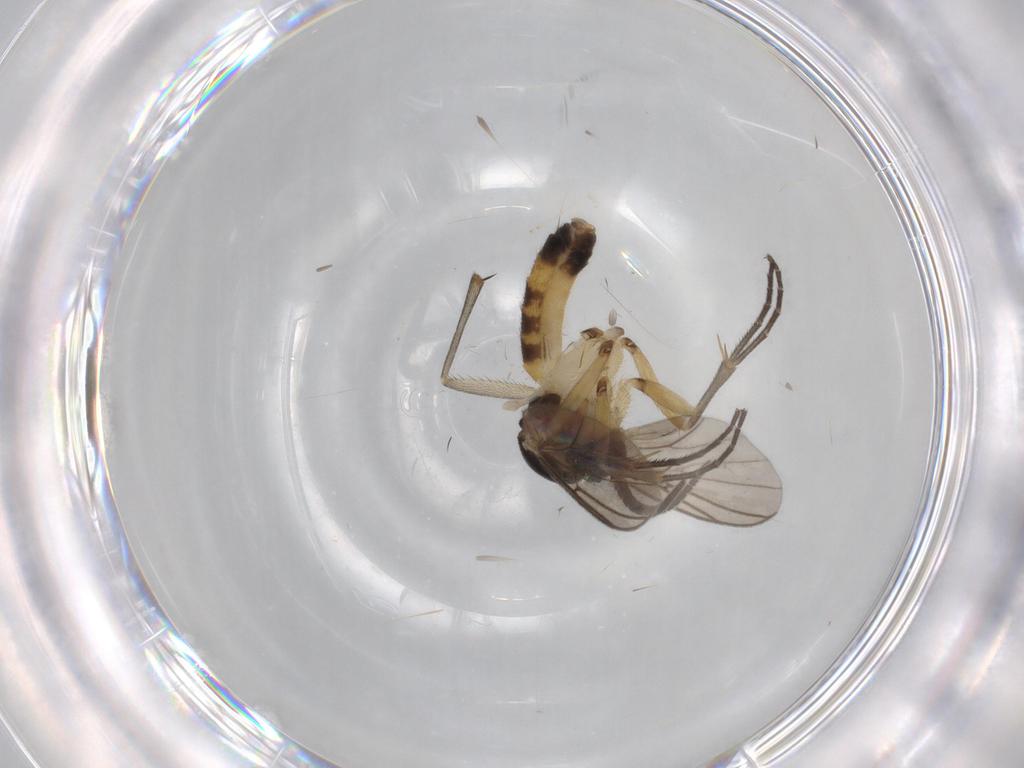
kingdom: Animalia
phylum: Arthropoda
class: Insecta
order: Diptera
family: Mycetophilidae
